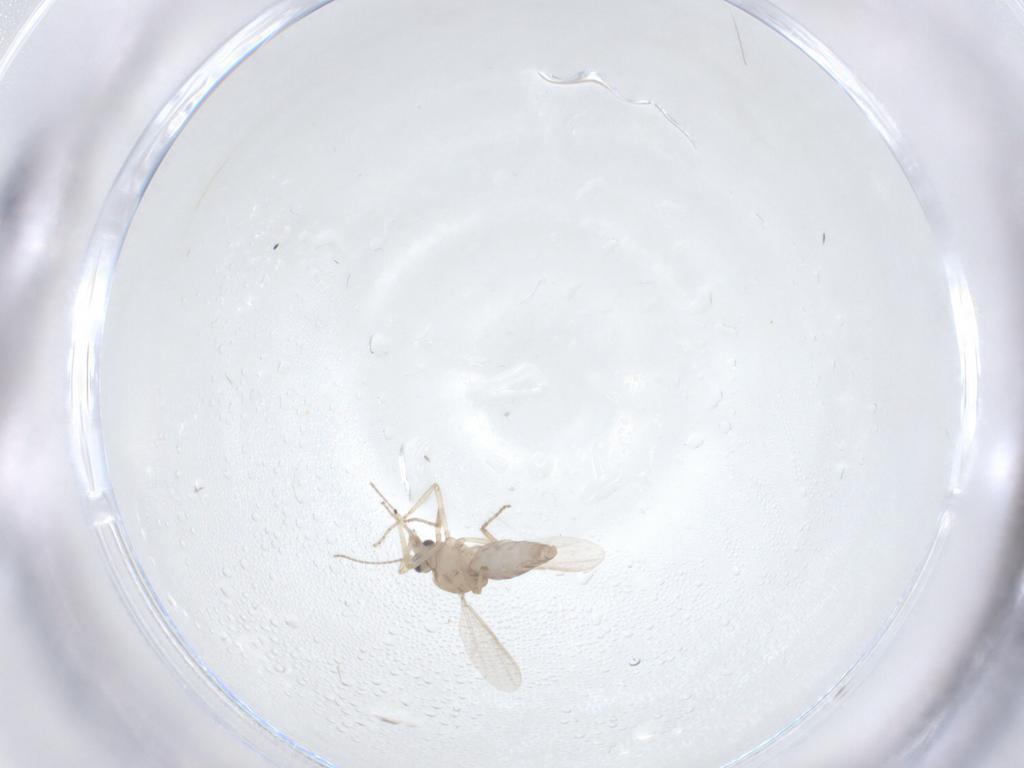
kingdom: Animalia
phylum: Arthropoda
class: Insecta
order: Diptera
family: Ceratopogonidae
